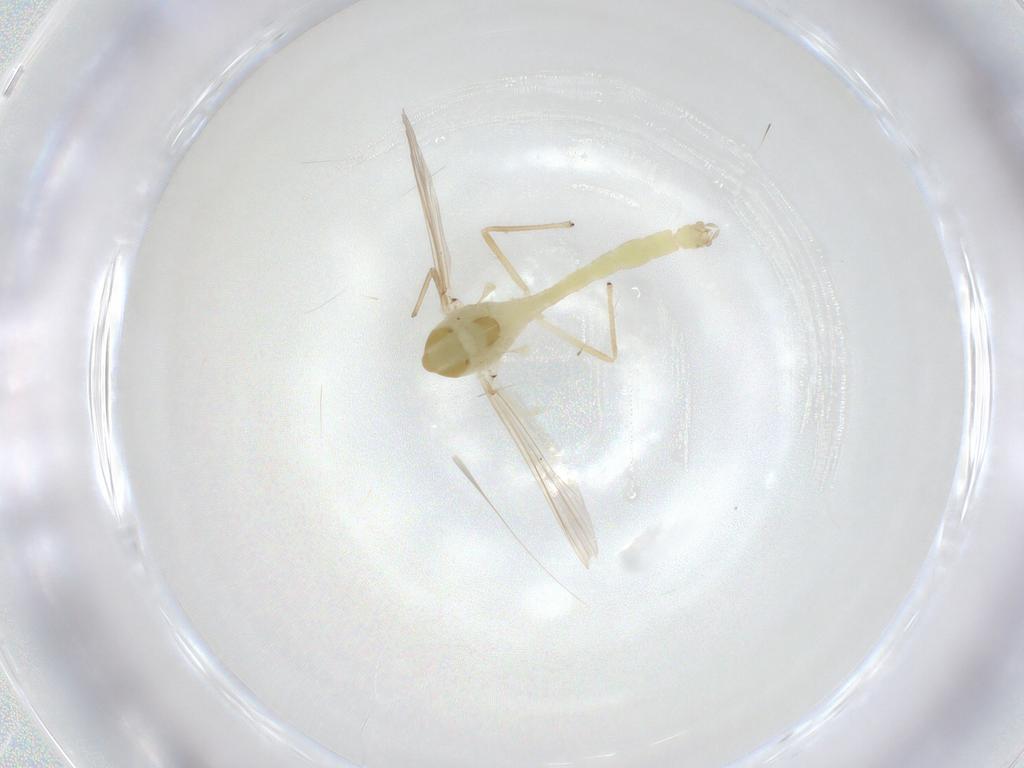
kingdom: Animalia
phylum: Arthropoda
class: Insecta
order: Diptera
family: Chironomidae
